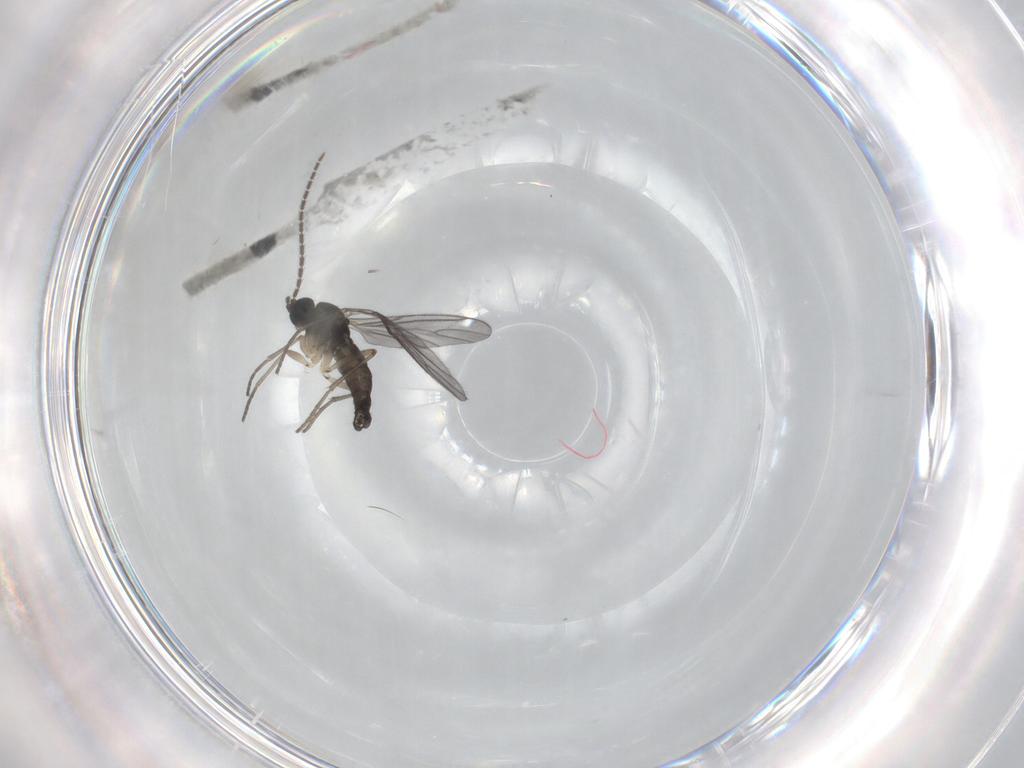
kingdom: Animalia
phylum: Arthropoda
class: Insecta
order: Diptera
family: Sciaridae
